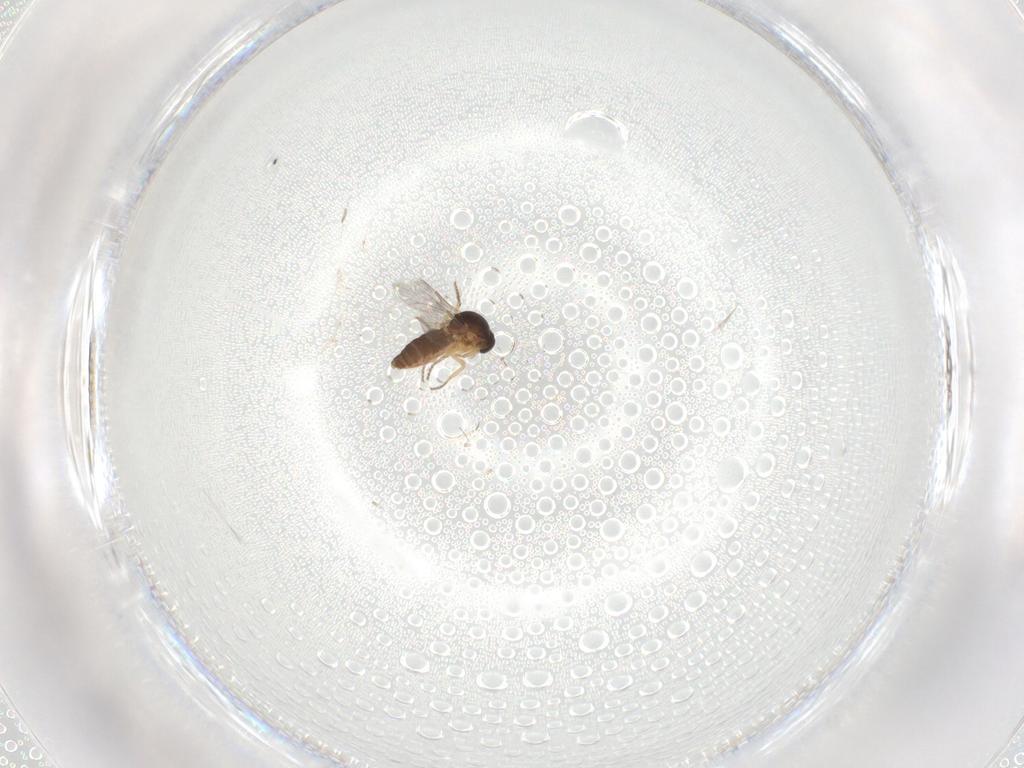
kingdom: Animalia
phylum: Arthropoda
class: Insecta
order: Diptera
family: Ceratopogonidae
